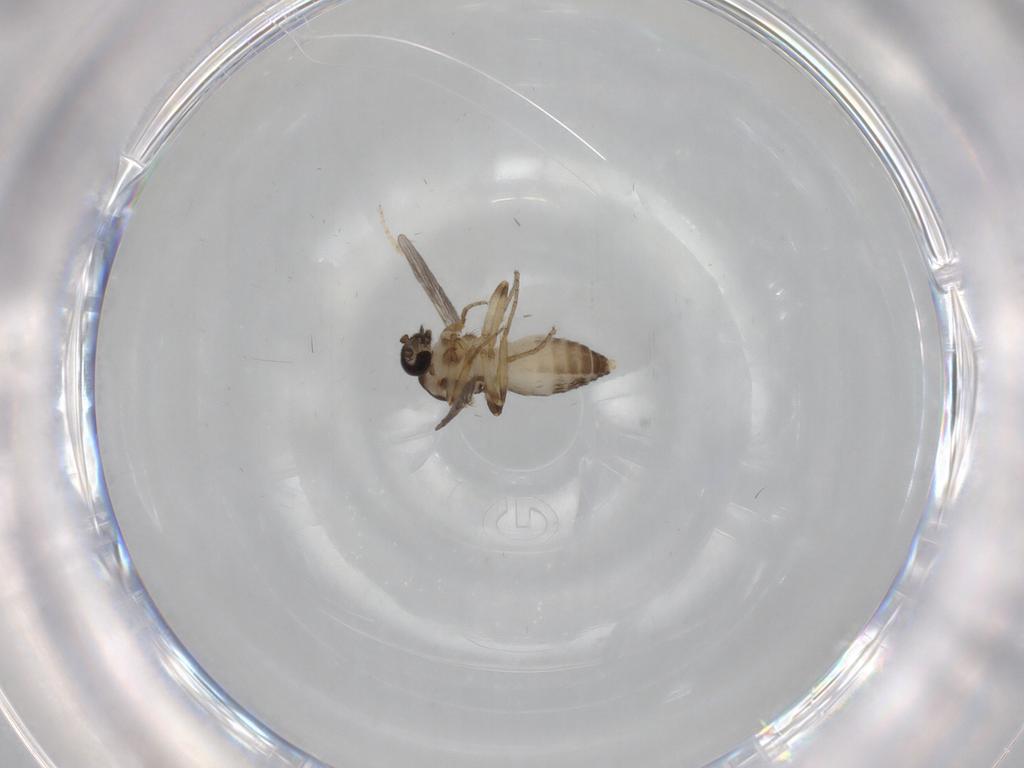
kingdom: Animalia
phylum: Arthropoda
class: Insecta
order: Diptera
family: Ceratopogonidae
